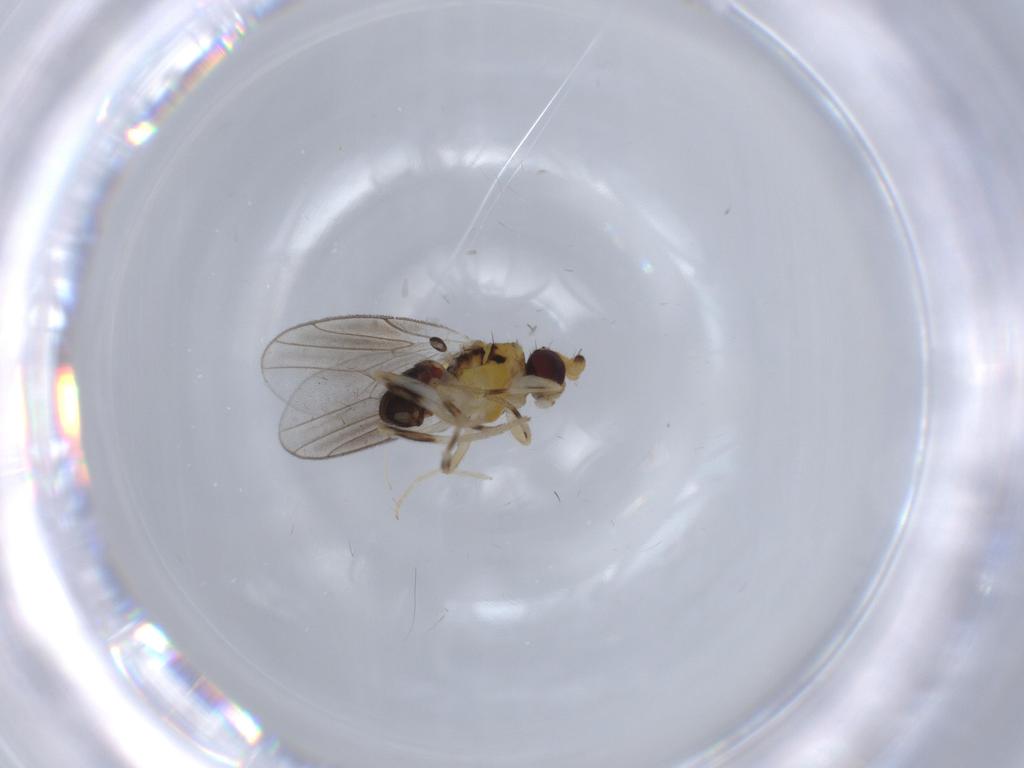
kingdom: Animalia
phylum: Arthropoda
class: Insecta
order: Diptera
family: Chloropidae
